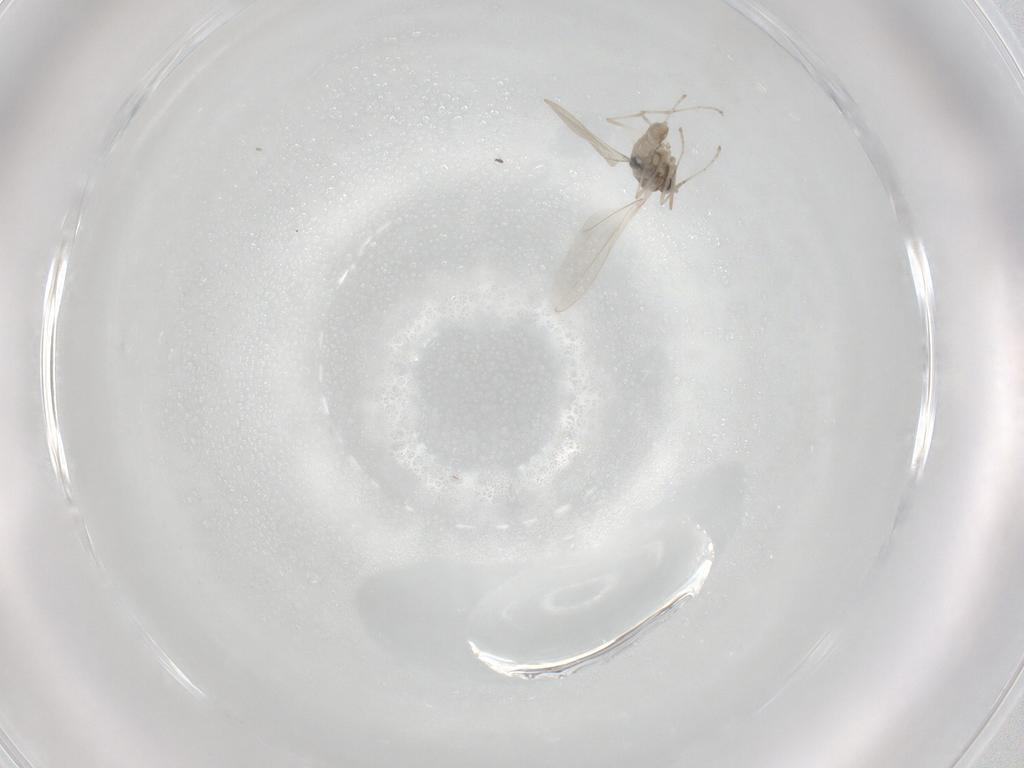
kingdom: Animalia
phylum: Arthropoda
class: Insecta
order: Diptera
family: Cecidomyiidae
